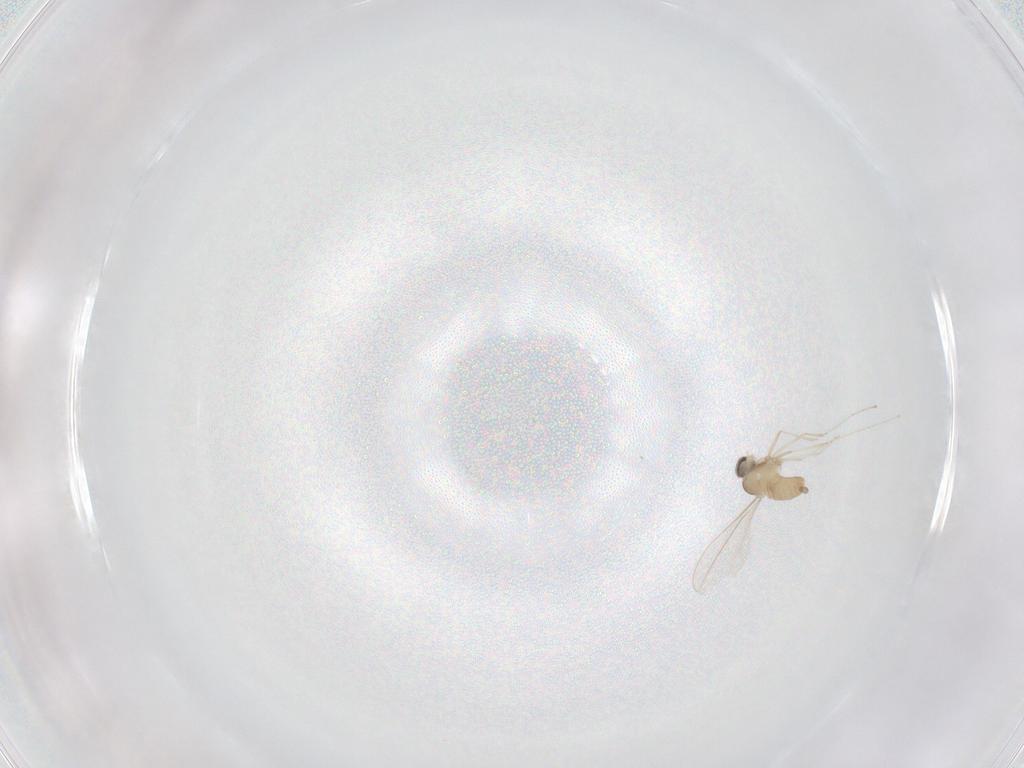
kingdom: Animalia
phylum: Arthropoda
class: Insecta
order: Diptera
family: Cecidomyiidae
